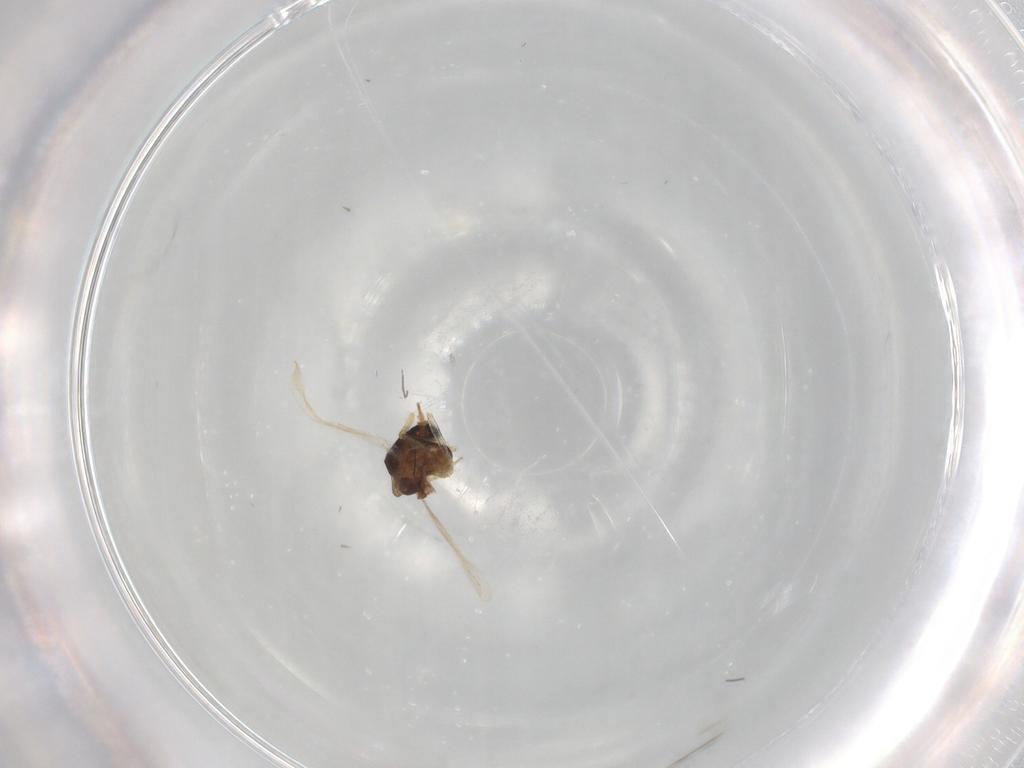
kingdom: Animalia
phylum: Arthropoda
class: Insecta
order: Diptera
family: Ceratopogonidae
